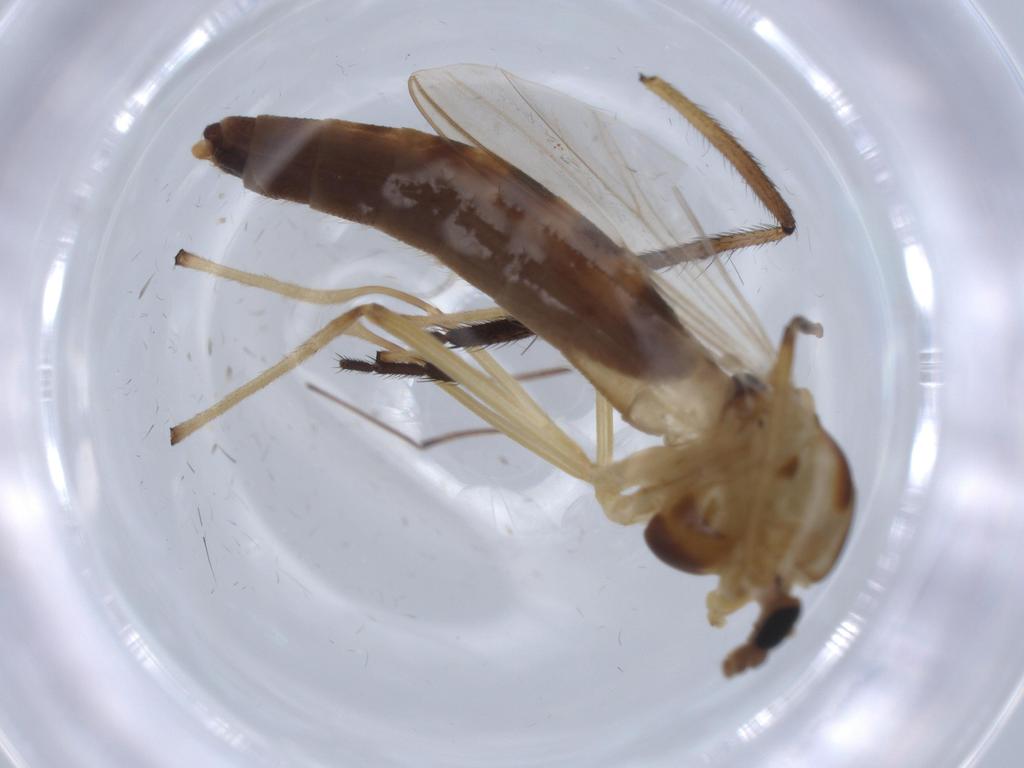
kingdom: Animalia
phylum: Arthropoda
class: Insecta
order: Diptera
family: Chironomidae
